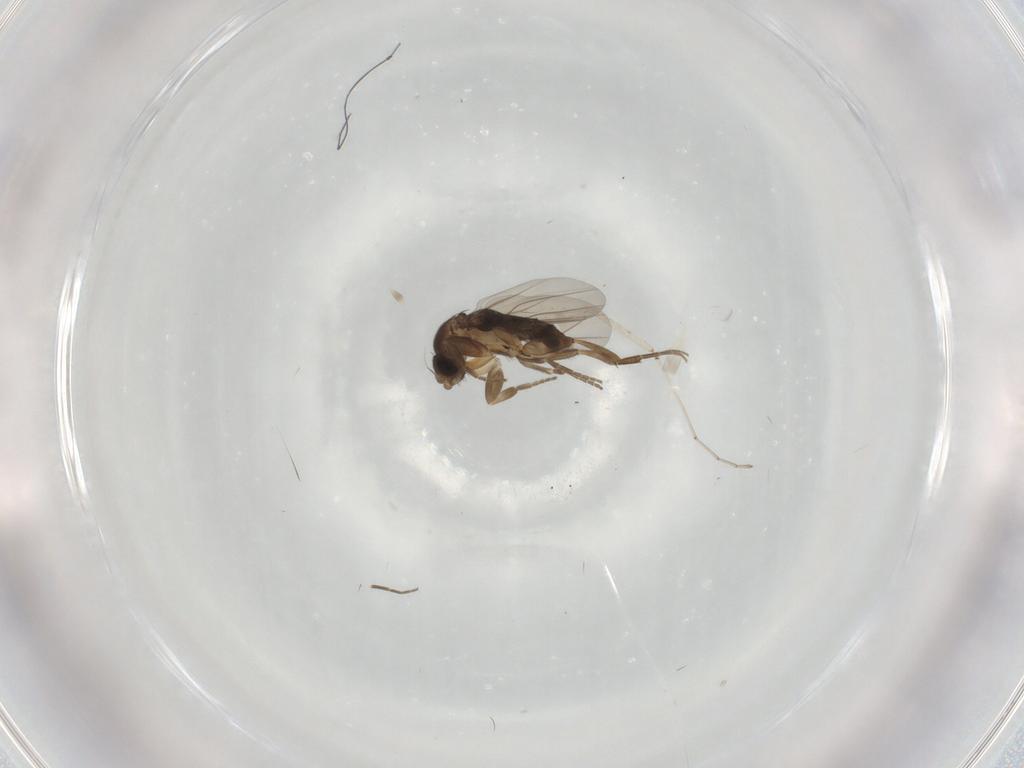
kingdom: Animalia
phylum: Arthropoda
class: Insecta
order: Diptera
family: Cecidomyiidae
